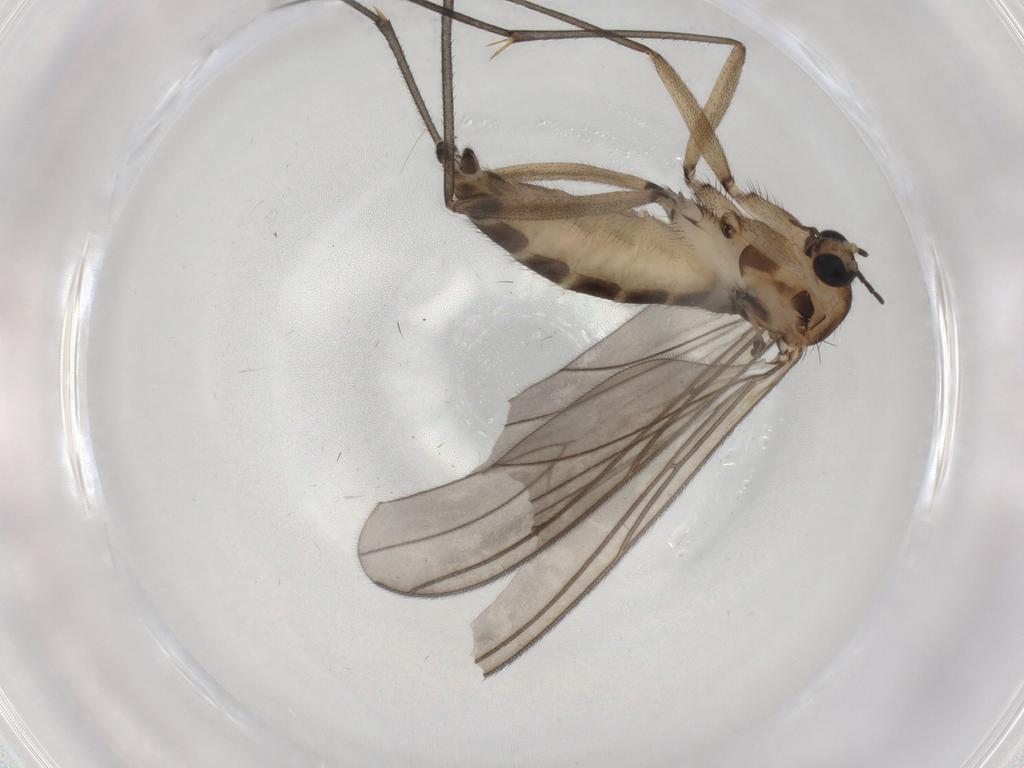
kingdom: Animalia
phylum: Arthropoda
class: Insecta
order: Diptera
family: Sciaridae
